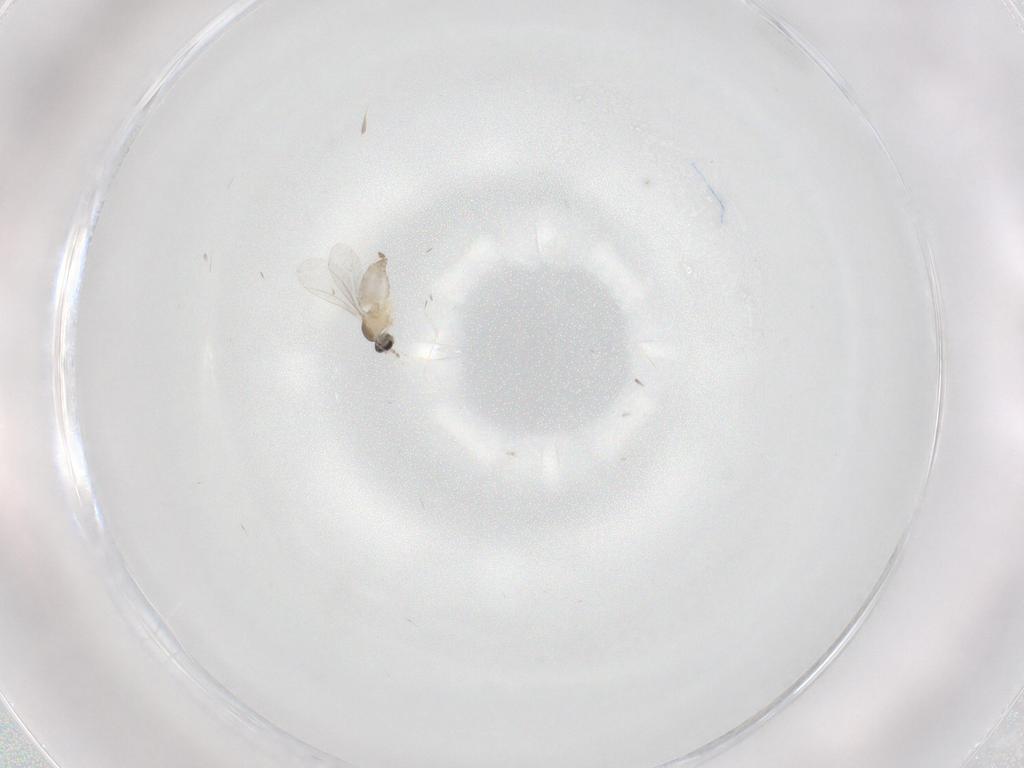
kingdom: Animalia
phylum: Arthropoda
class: Insecta
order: Diptera
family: Cecidomyiidae
